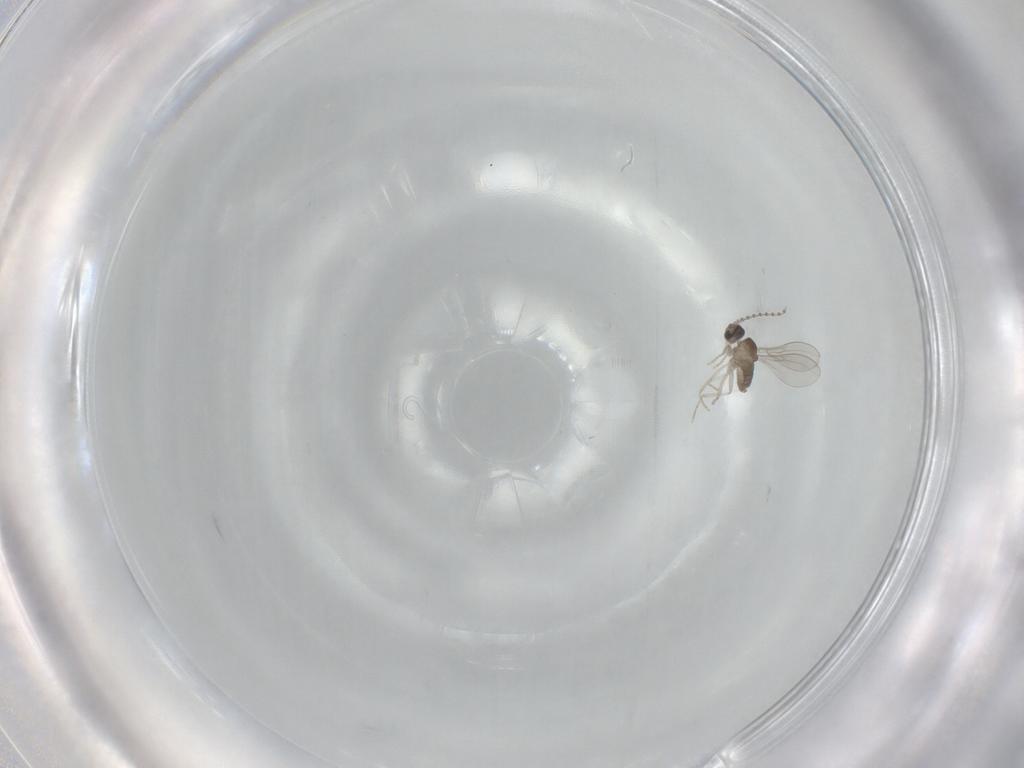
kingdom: Animalia
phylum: Arthropoda
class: Insecta
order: Diptera
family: Cecidomyiidae
